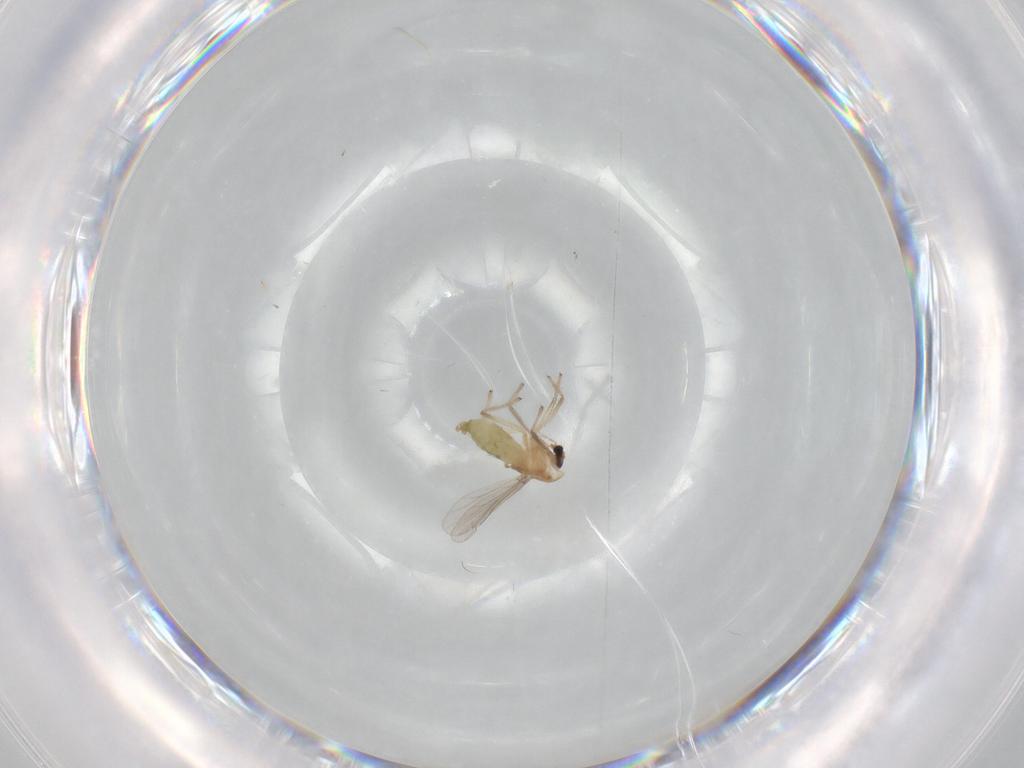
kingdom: Animalia
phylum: Arthropoda
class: Insecta
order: Diptera
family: Chironomidae
